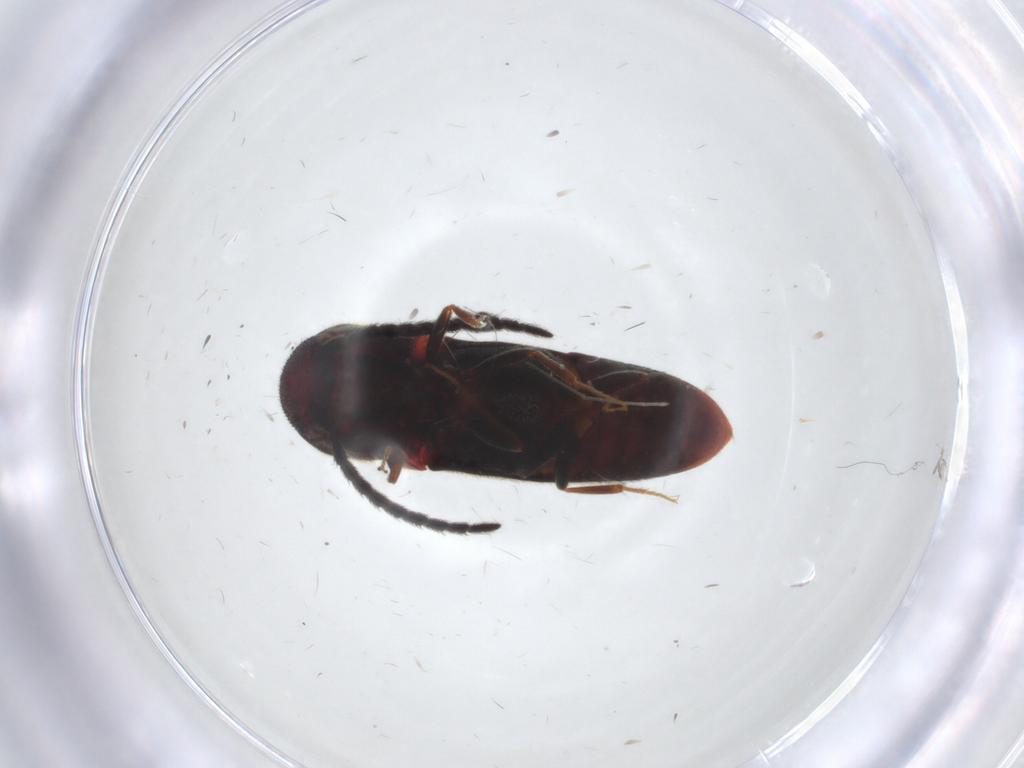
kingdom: Animalia
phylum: Arthropoda
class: Insecta
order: Coleoptera
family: Eucnemidae
